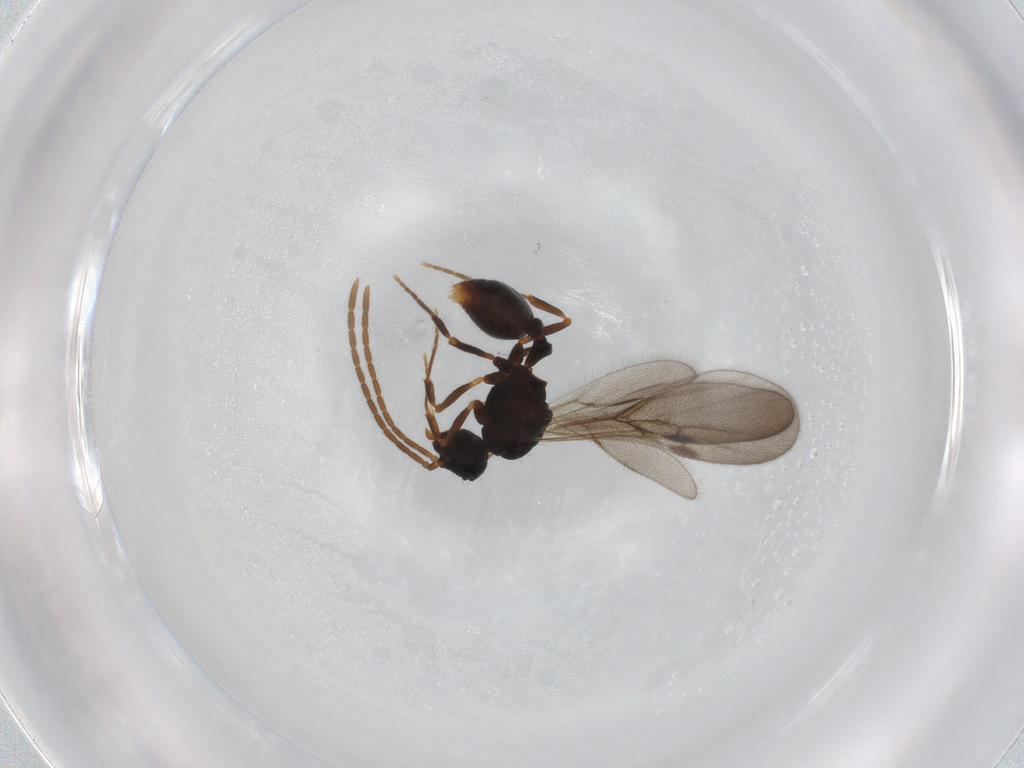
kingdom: Animalia
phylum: Arthropoda
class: Insecta
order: Hymenoptera
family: Formicidae
